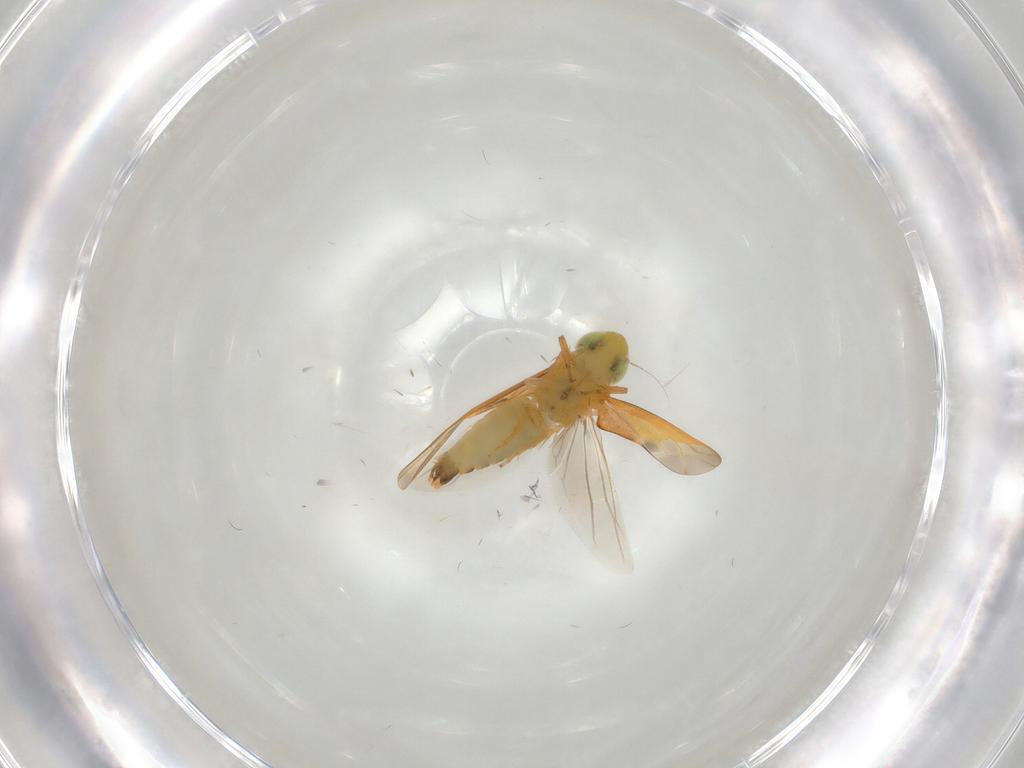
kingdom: Animalia
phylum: Arthropoda
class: Insecta
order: Hemiptera
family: Cicadellidae
